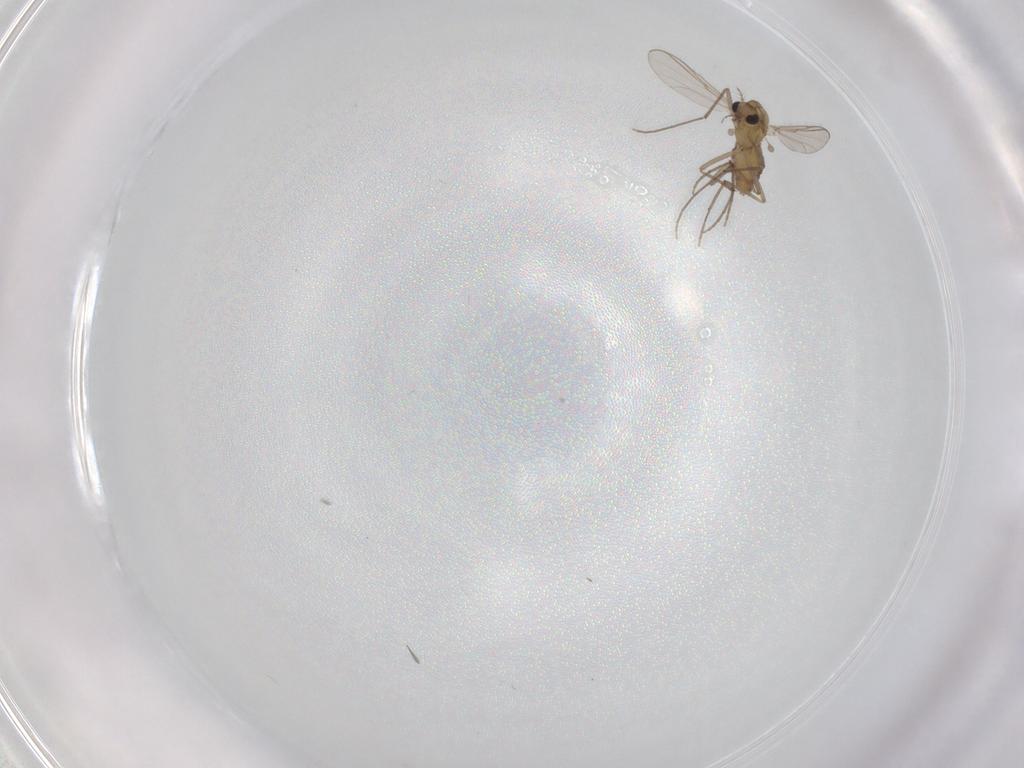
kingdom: Animalia
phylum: Arthropoda
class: Insecta
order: Diptera
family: Chironomidae
